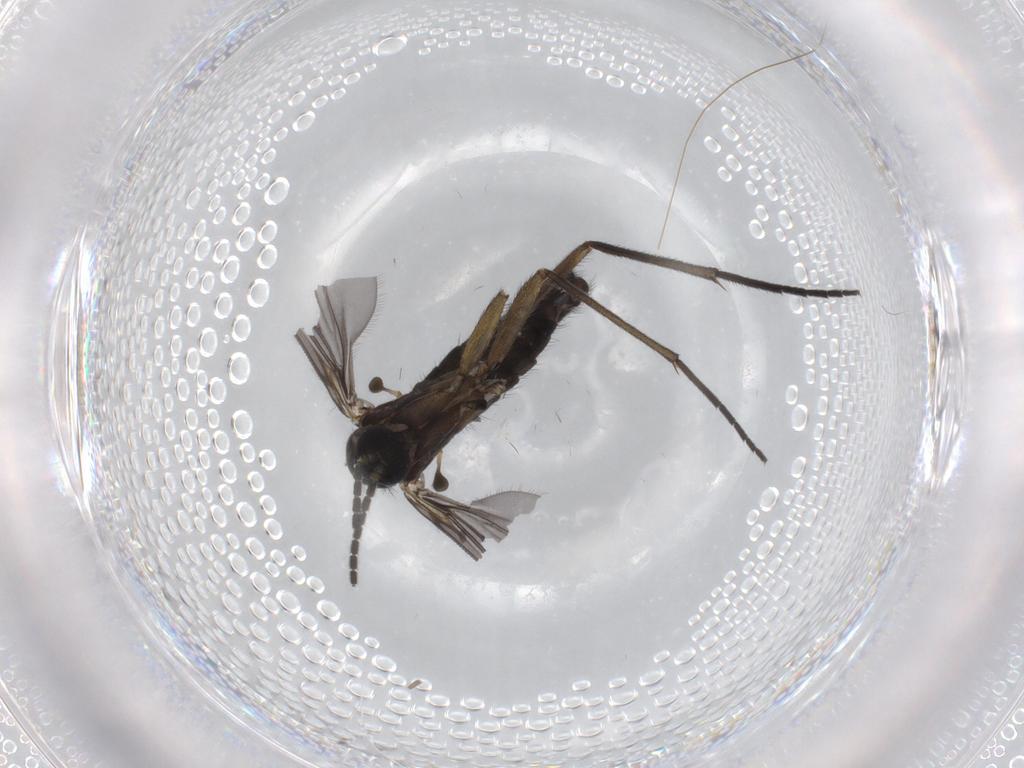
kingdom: Animalia
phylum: Arthropoda
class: Insecta
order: Diptera
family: Sciaridae
